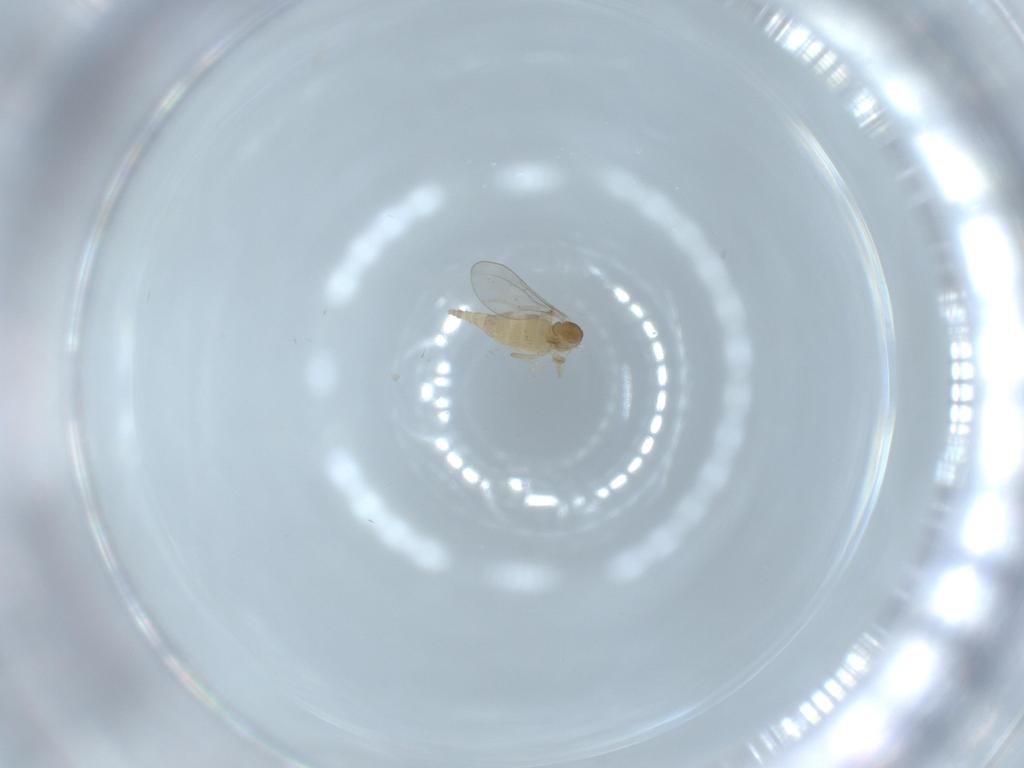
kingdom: Animalia
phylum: Arthropoda
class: Insecta
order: Diptera
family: Cecidomyiidae
